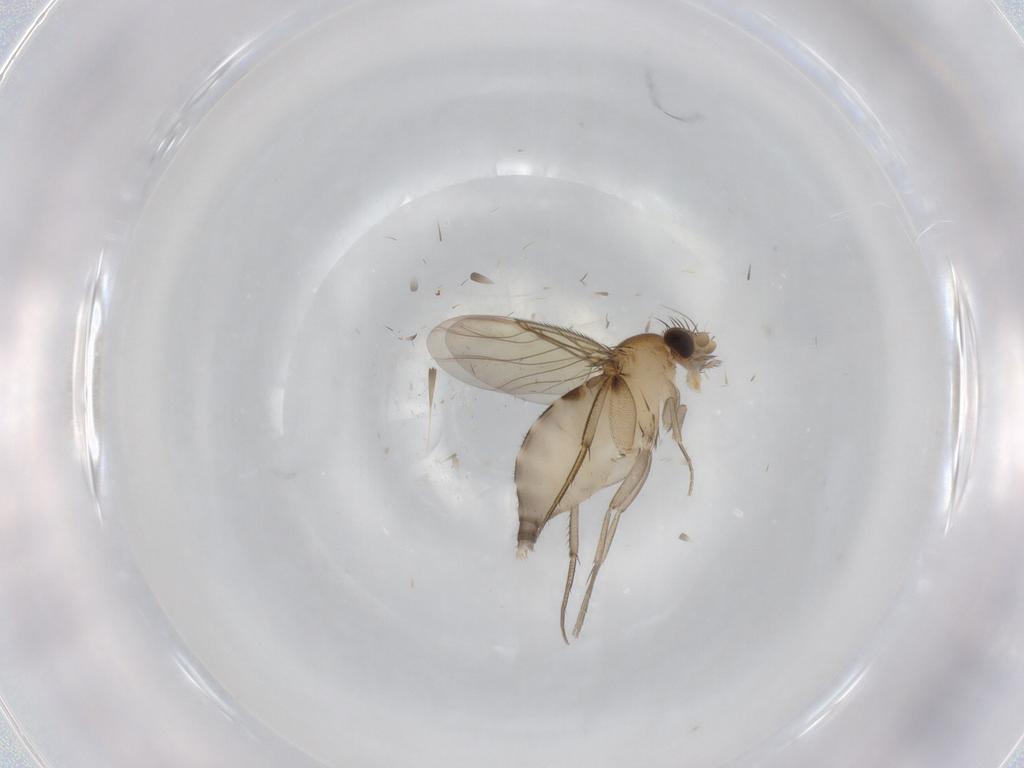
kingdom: Animalia
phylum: Arthropoda
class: Insecta
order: Diptera
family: Phoridae
